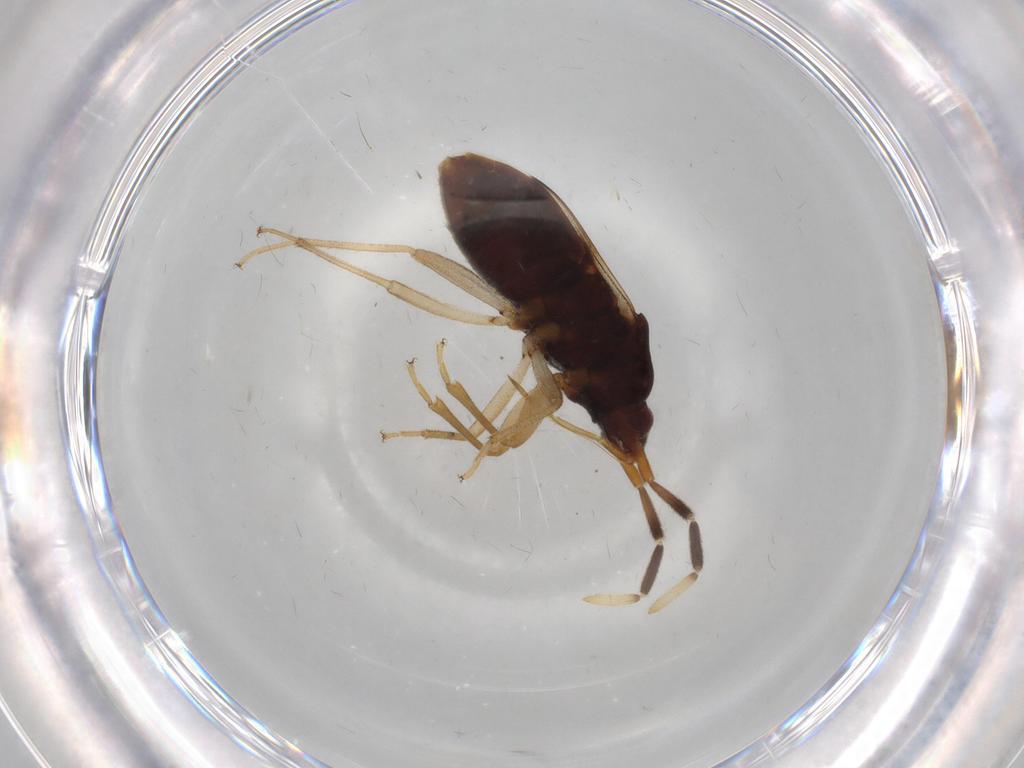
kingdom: Animalia
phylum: Arthropoda
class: Insecta
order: Hemiptera
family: Rhyparochromidae
